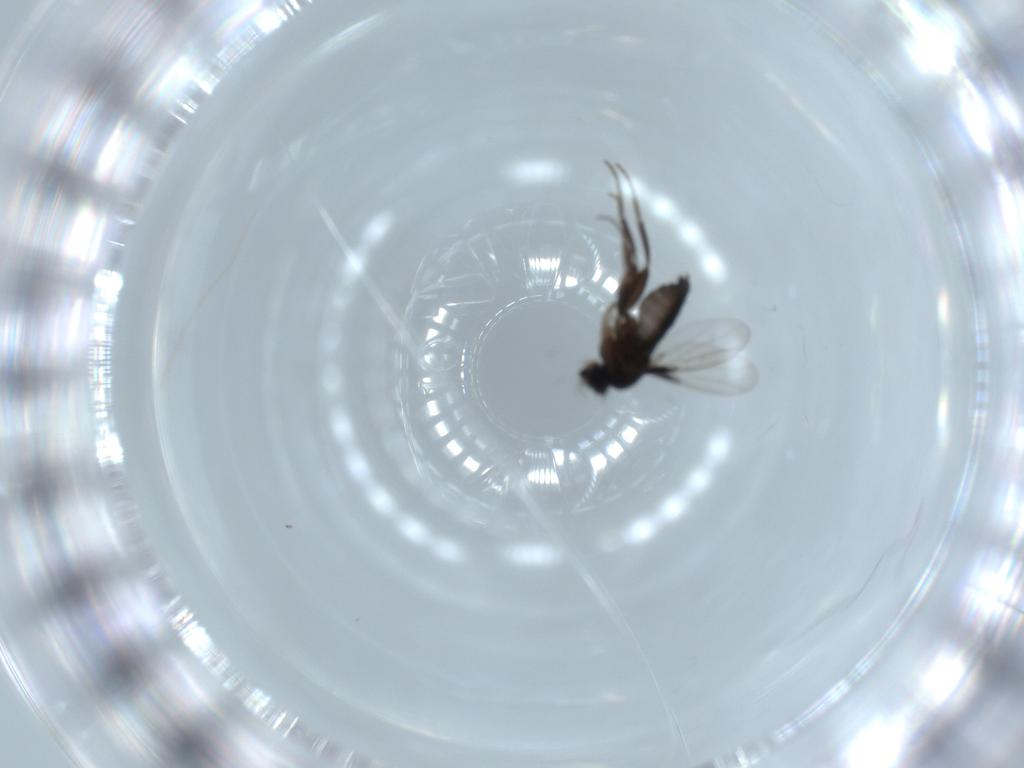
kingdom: Animalia
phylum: Arthropoda
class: Insecta
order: Diptera
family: Phoridae
